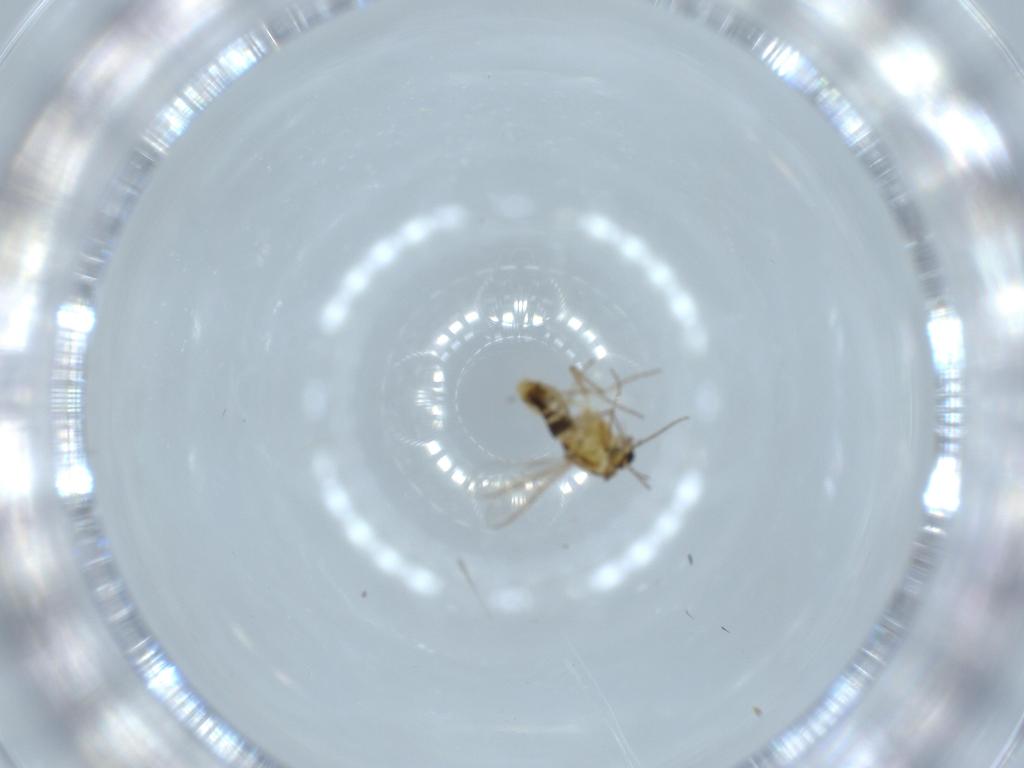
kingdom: Animalia
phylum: Arthropoda
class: Insecta
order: Diptera
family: Chironomidae
